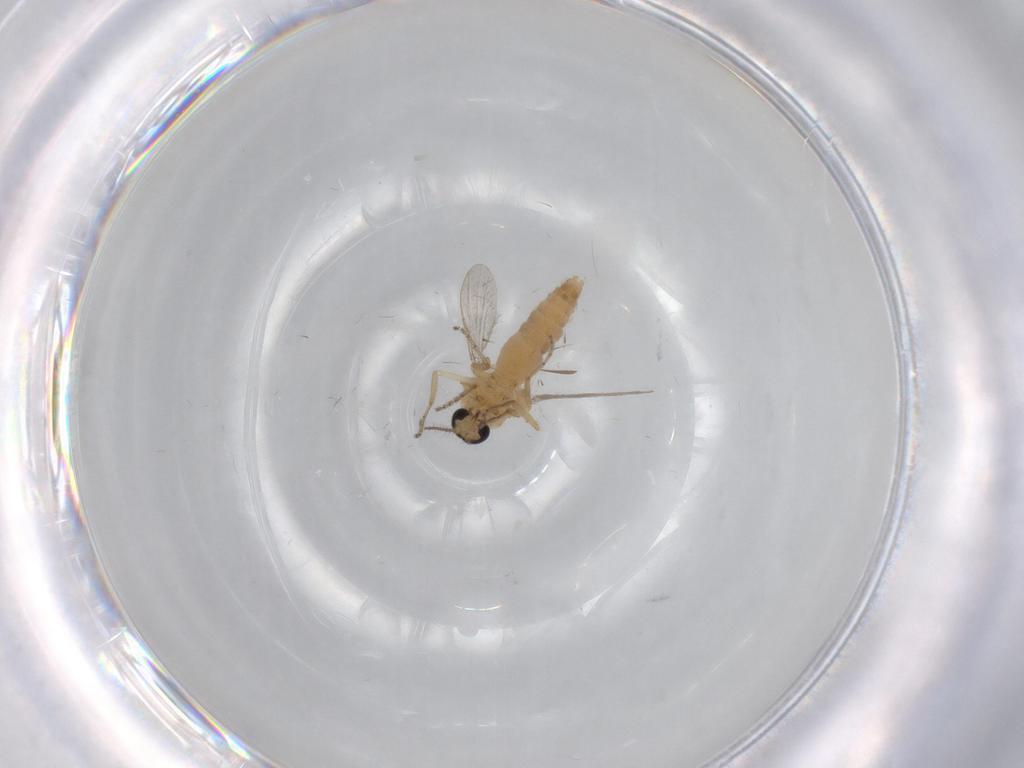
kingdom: Animalia
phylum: Arthropoda
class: Insecta
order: Diptera
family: Ceratopogonidae
